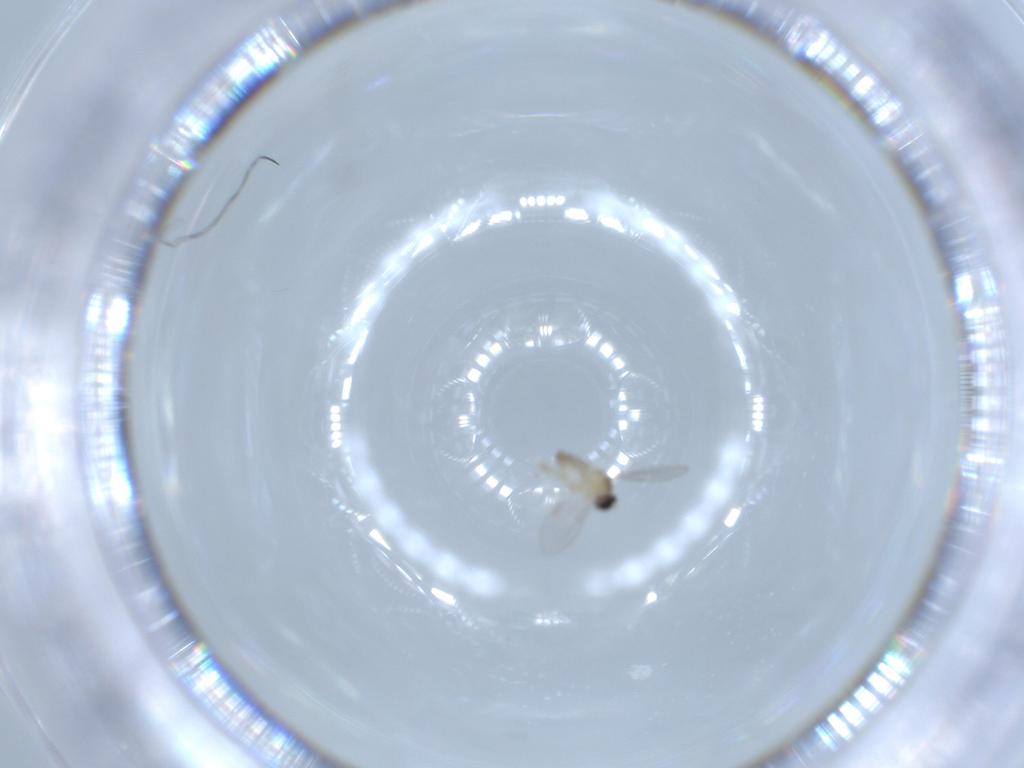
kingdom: Animalia
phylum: Arthropoda
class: Insecta
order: Diptera
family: Cecidomyiidae
